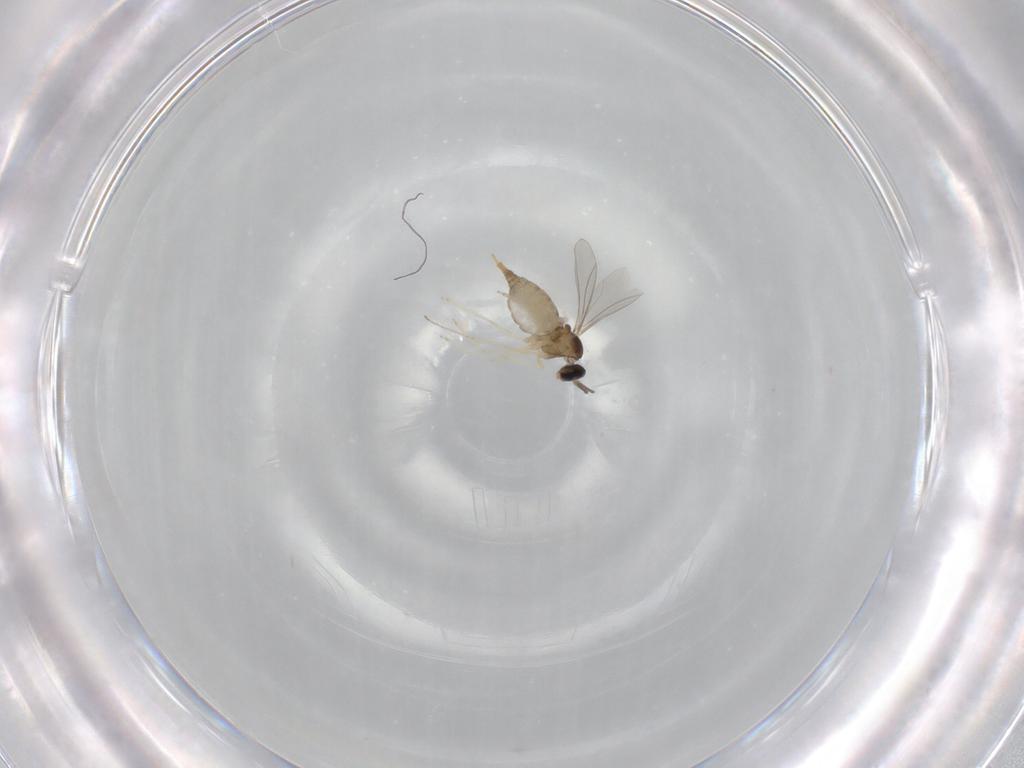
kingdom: Animalia
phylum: Arthropoda
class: Insecta
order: Diptera
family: Cecidomyiidae
